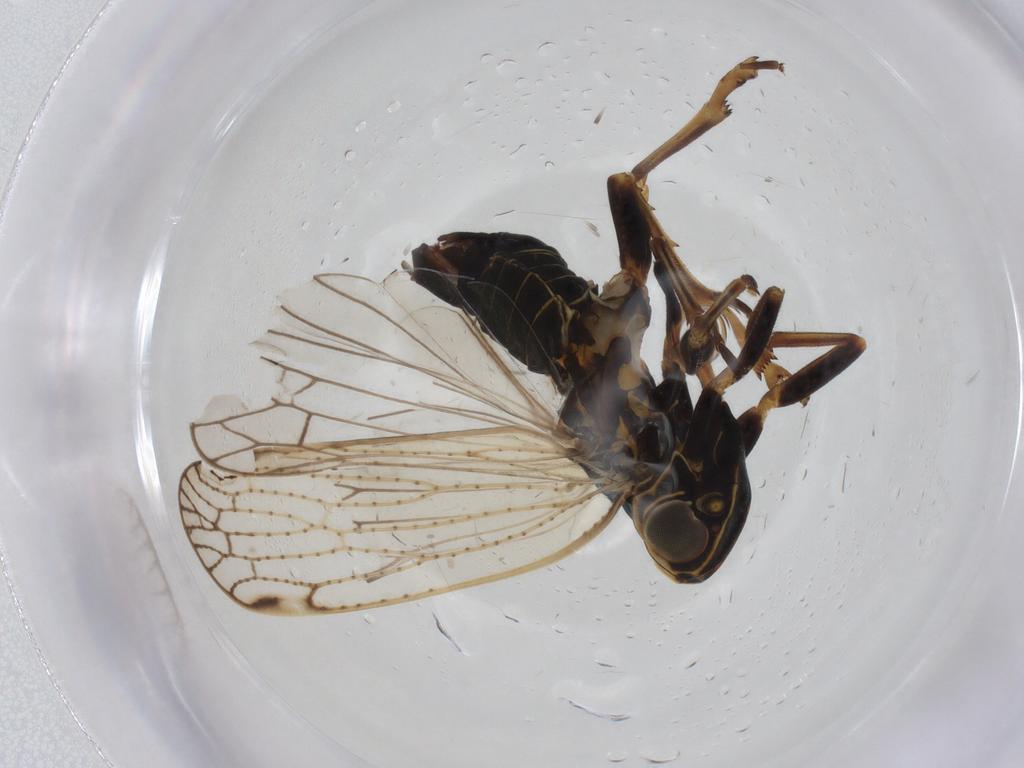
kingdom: Animalia
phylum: Arthropoda
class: Insecta
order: Hemiptera
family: Cixiidae
